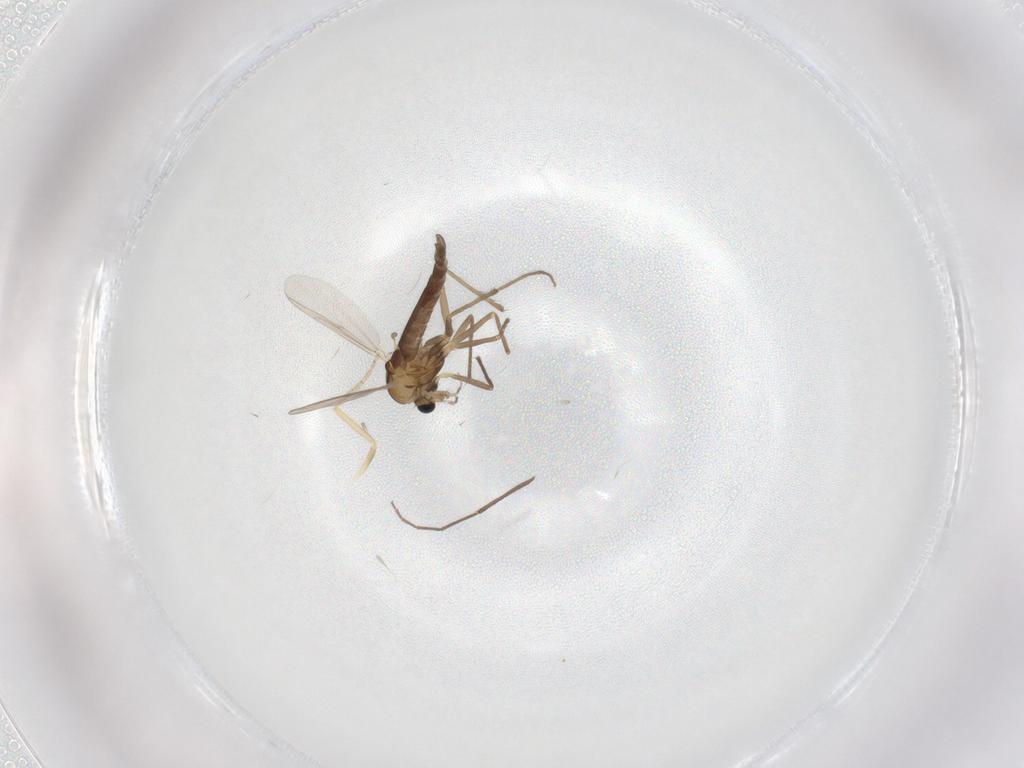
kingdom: Animalia
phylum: Arthropoda
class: Insecta
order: Diptera
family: Chironomidae
